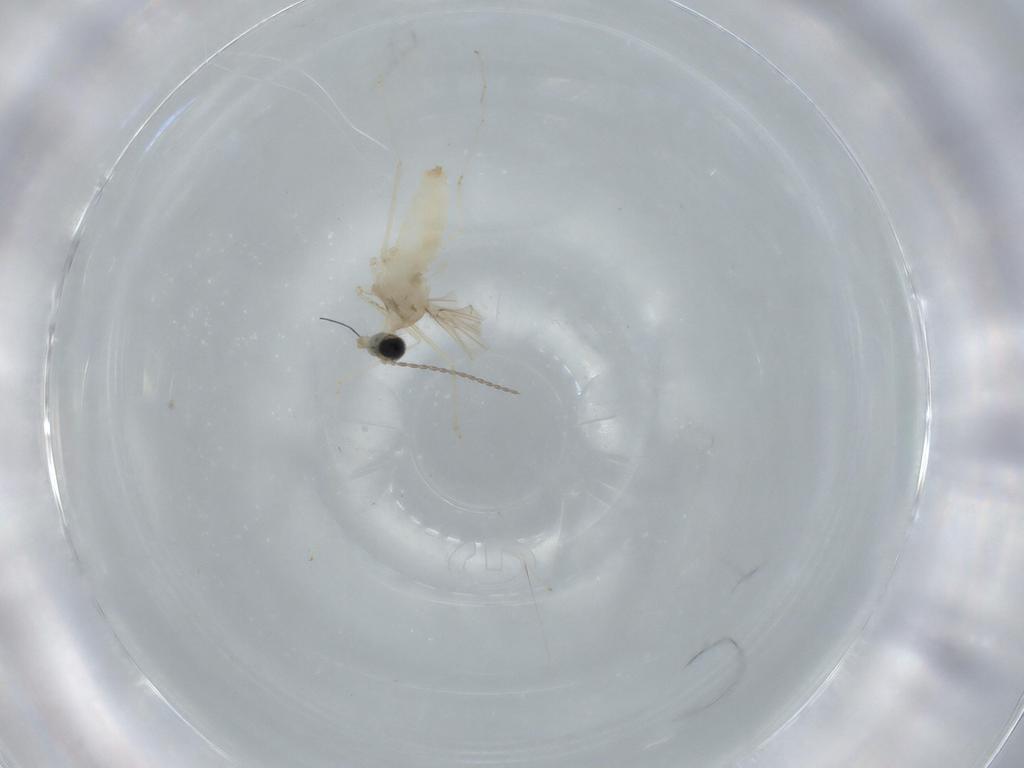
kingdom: Animalia
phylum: Arthropoda
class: Insecta
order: Diptera
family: Cecidomyiidae
